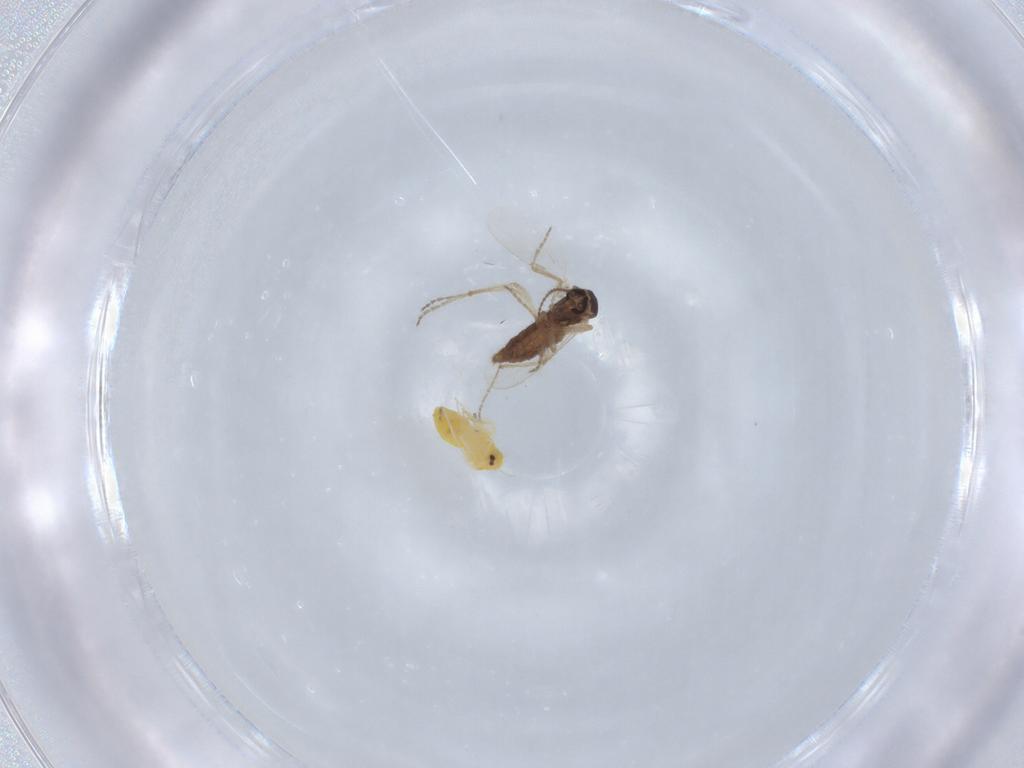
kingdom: Animalia
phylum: Arthropoda
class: Insecta
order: Diptera
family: Ceratopogonidae
